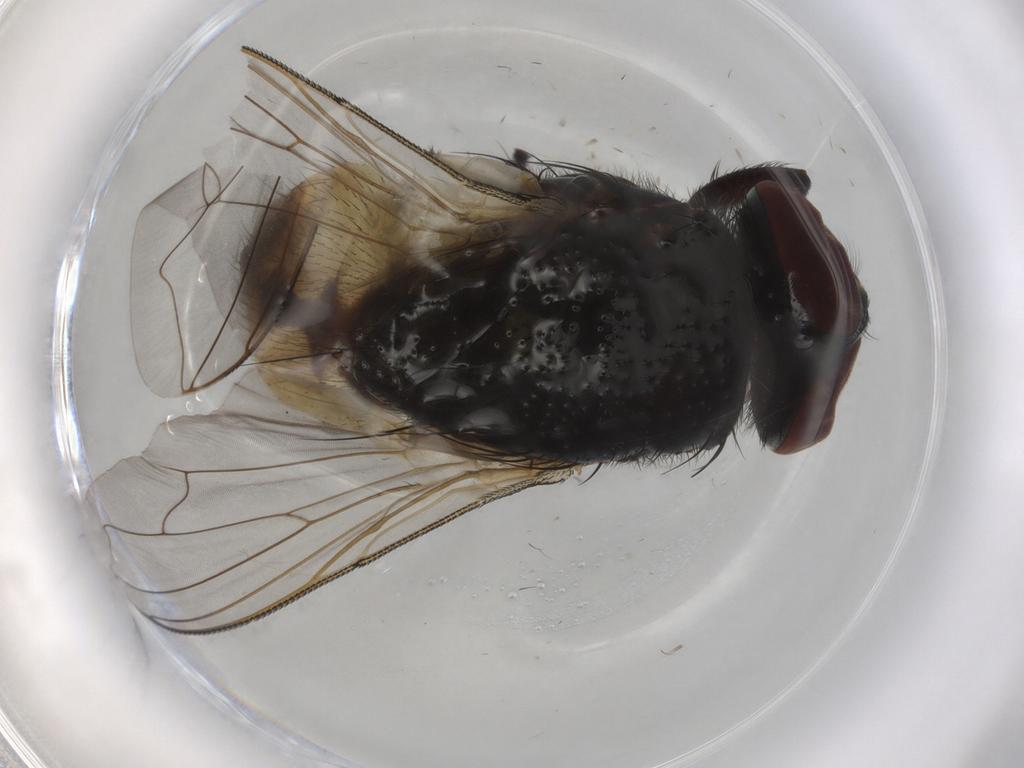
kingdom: Animalia
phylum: Arthropoda
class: Insecta
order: Diptera
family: Muscidae
